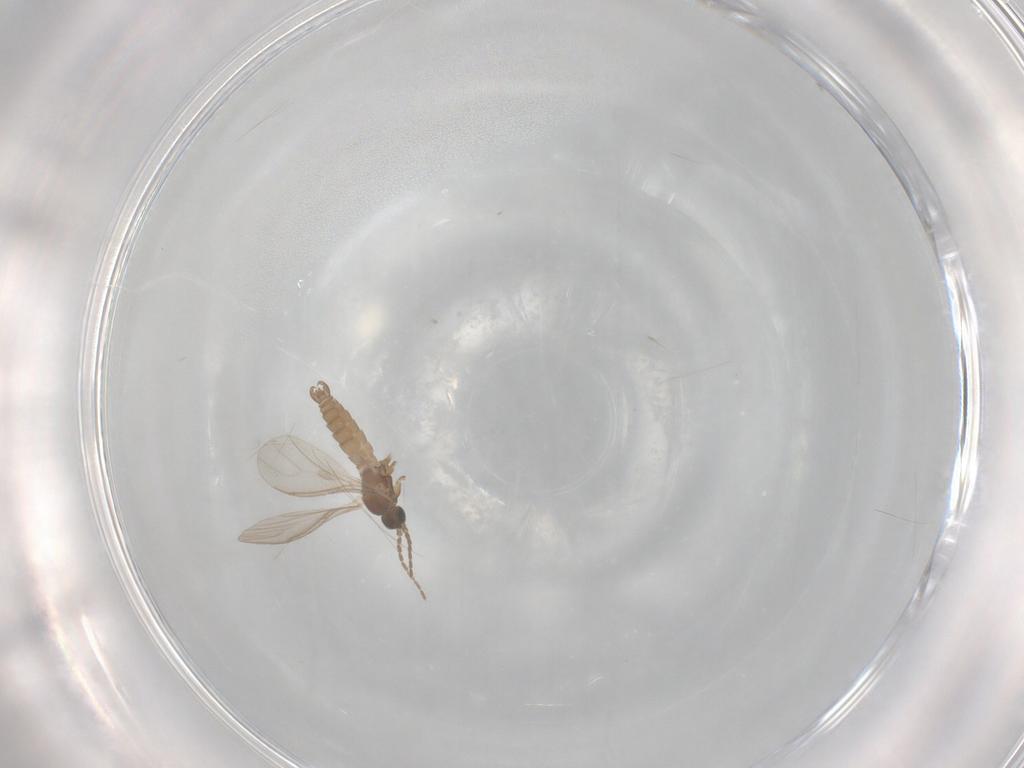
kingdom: Animalia
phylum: Arthropoda
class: Insecta
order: Diptera
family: Sciaridae
